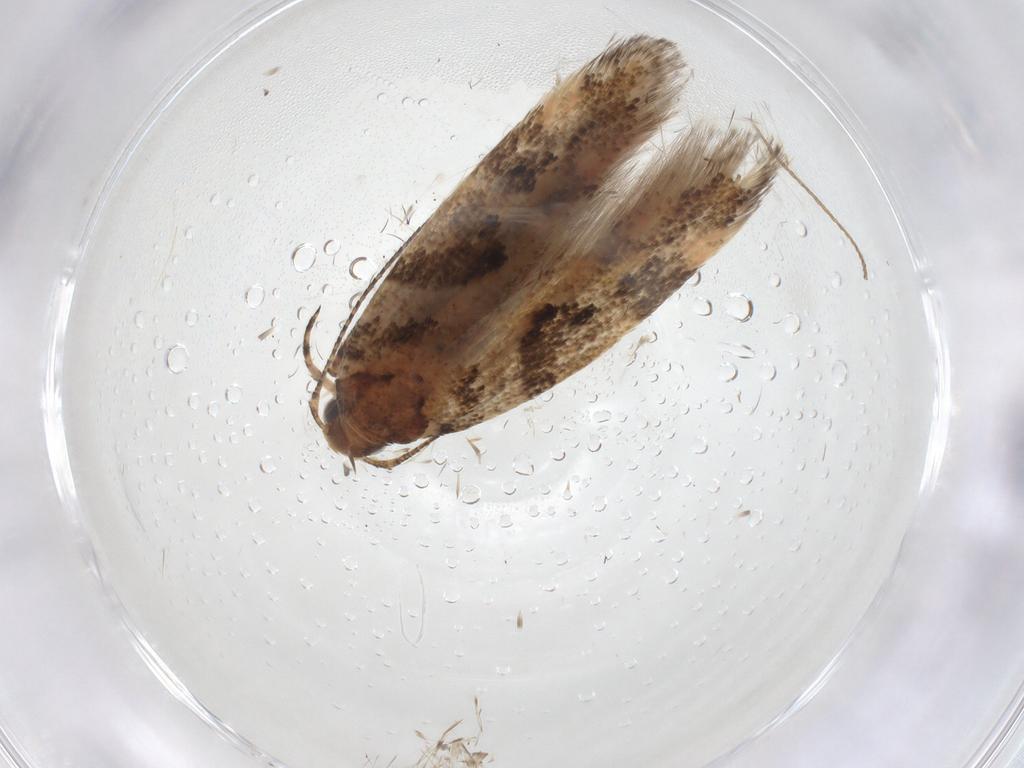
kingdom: Animalia
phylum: Arthropoda
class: Insecta
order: Lepidoptera
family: Gelechiidae
